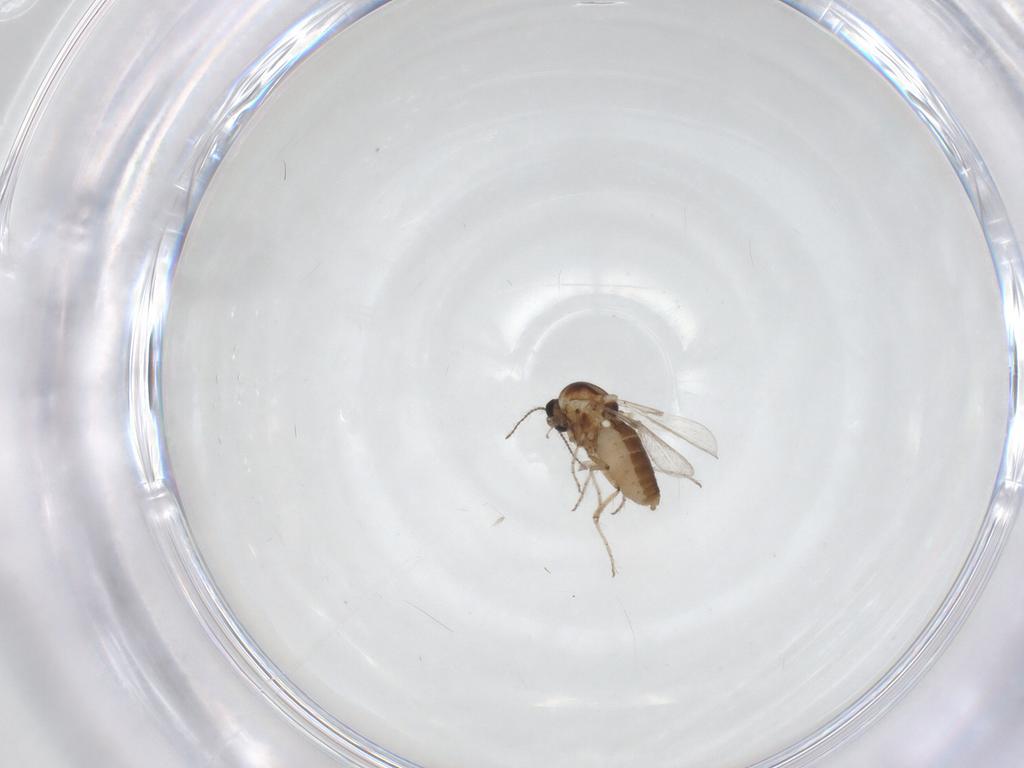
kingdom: Animalia
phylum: Arthropoda
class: Insecta
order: Diptera
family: Ceratopogonidae
